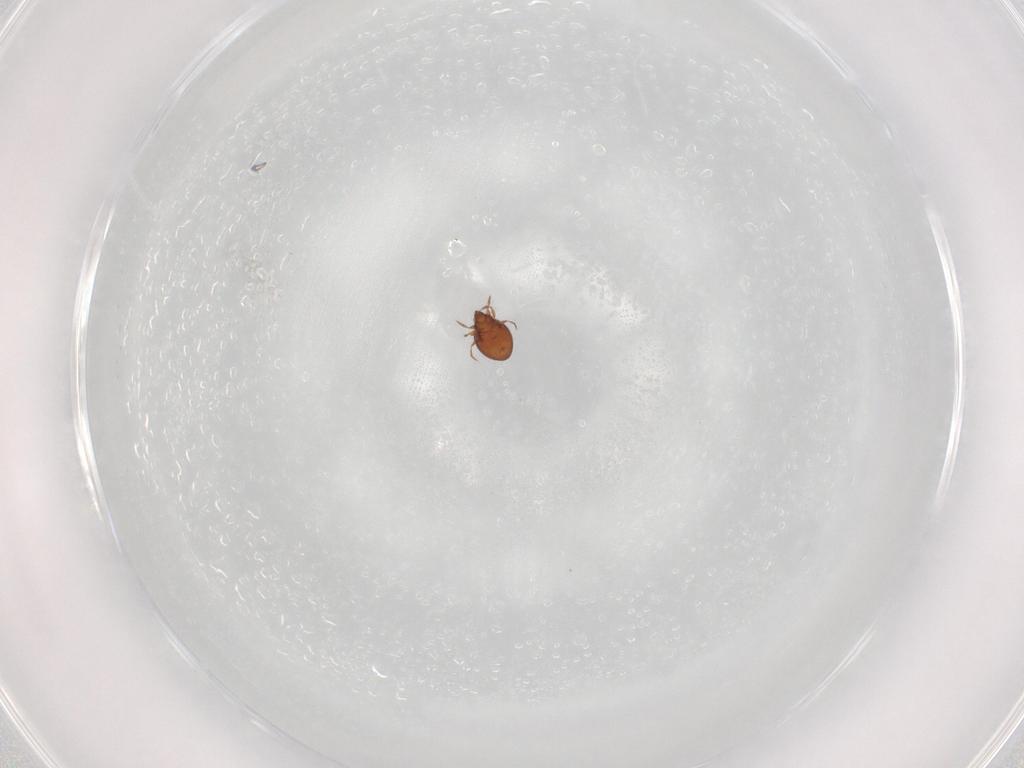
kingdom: Animalia
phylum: Arthropoda
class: Arachnida
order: Sarcoptiformes
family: Oribatulidae
